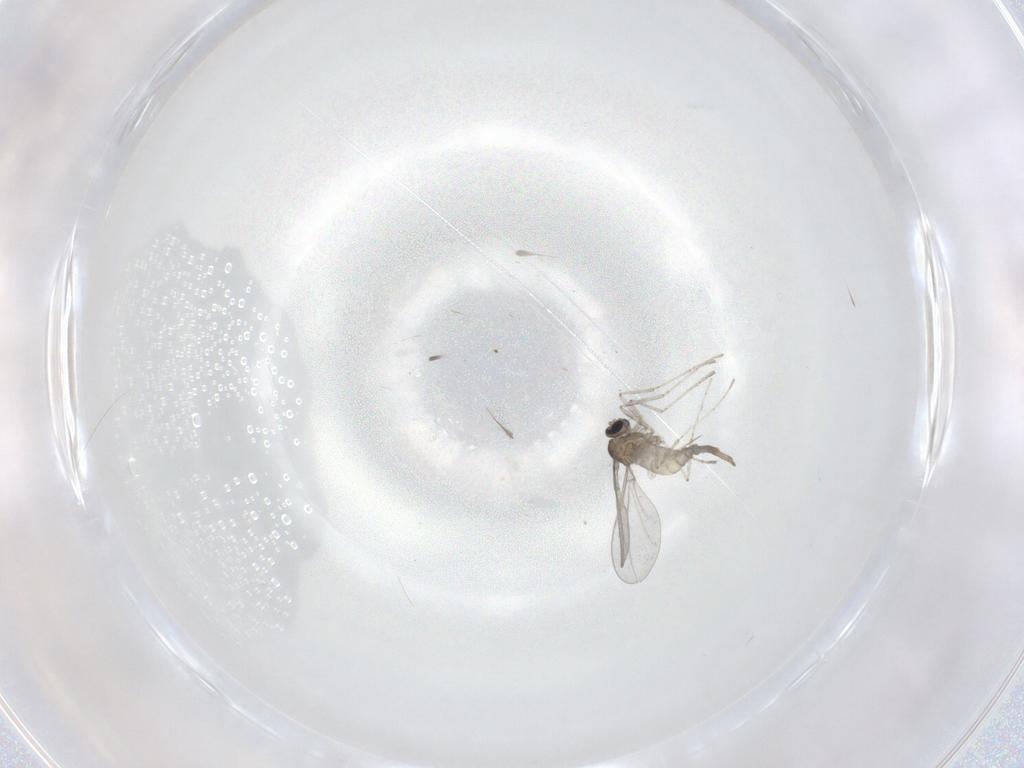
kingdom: Animalia
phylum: Arthropoda
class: Insecta
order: Diptera
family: Cecidomyiidae
